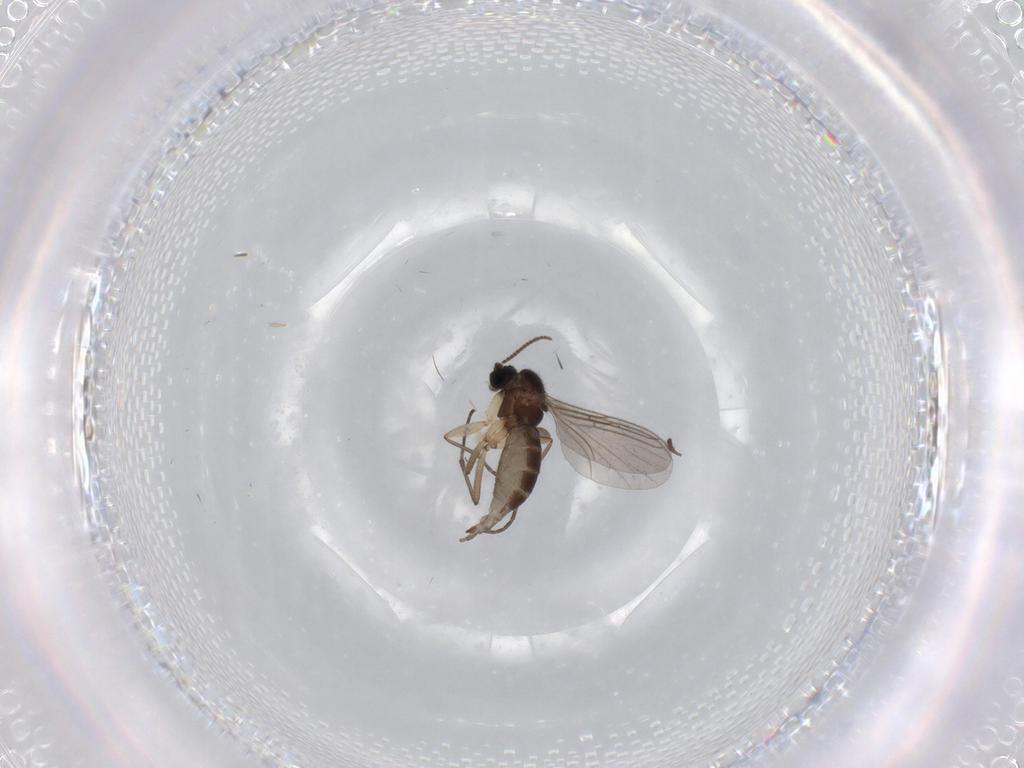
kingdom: Animalia
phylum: Arthropoda
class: Insecta
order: Diptera
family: Sciaridae
